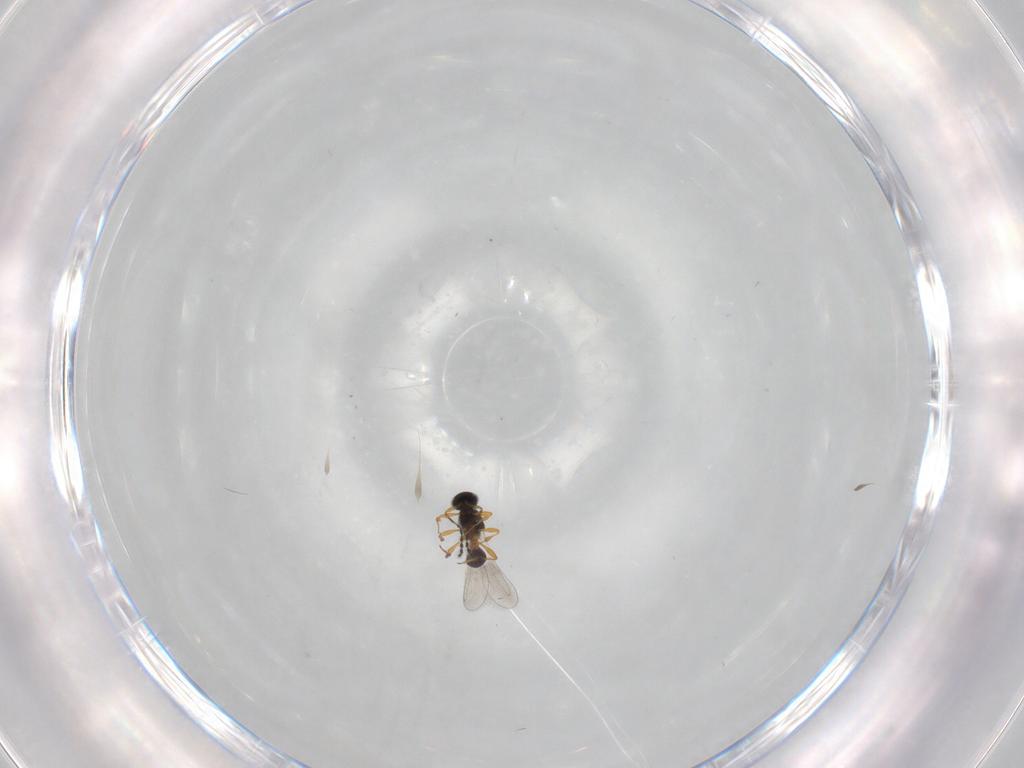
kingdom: Animalia
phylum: Arthropoda
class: Insecta
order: Hymenoptera
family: Platygastridae
